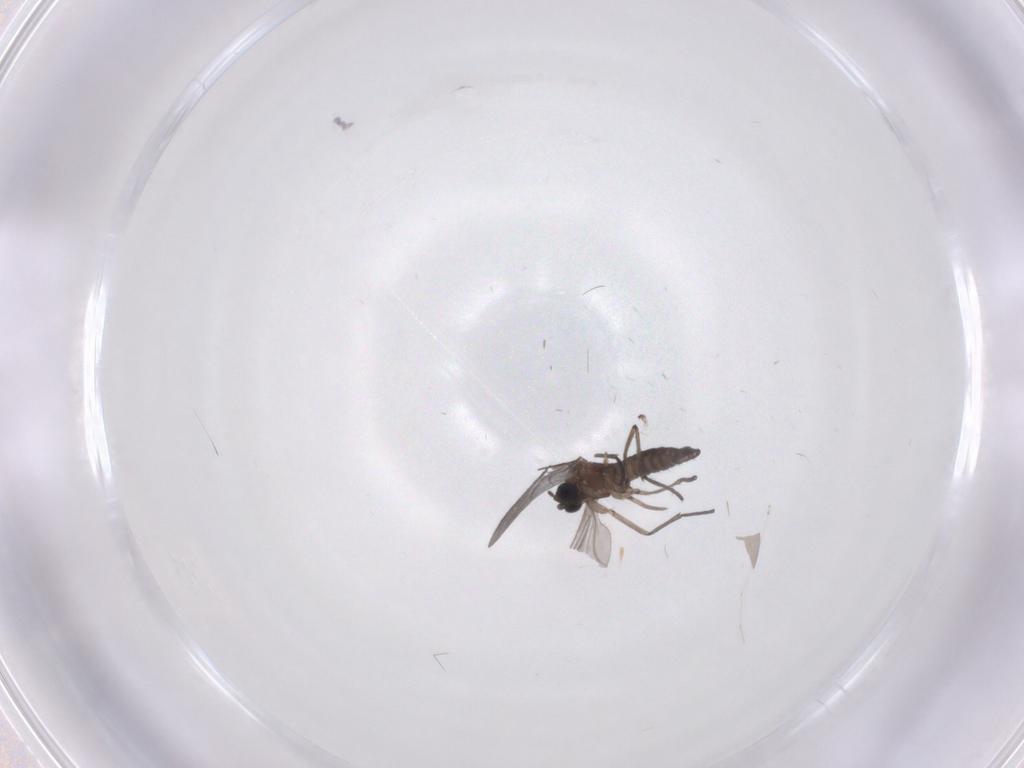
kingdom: Animalia
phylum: Arthropoda
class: Insecta
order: Diptera
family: Sciaridae
